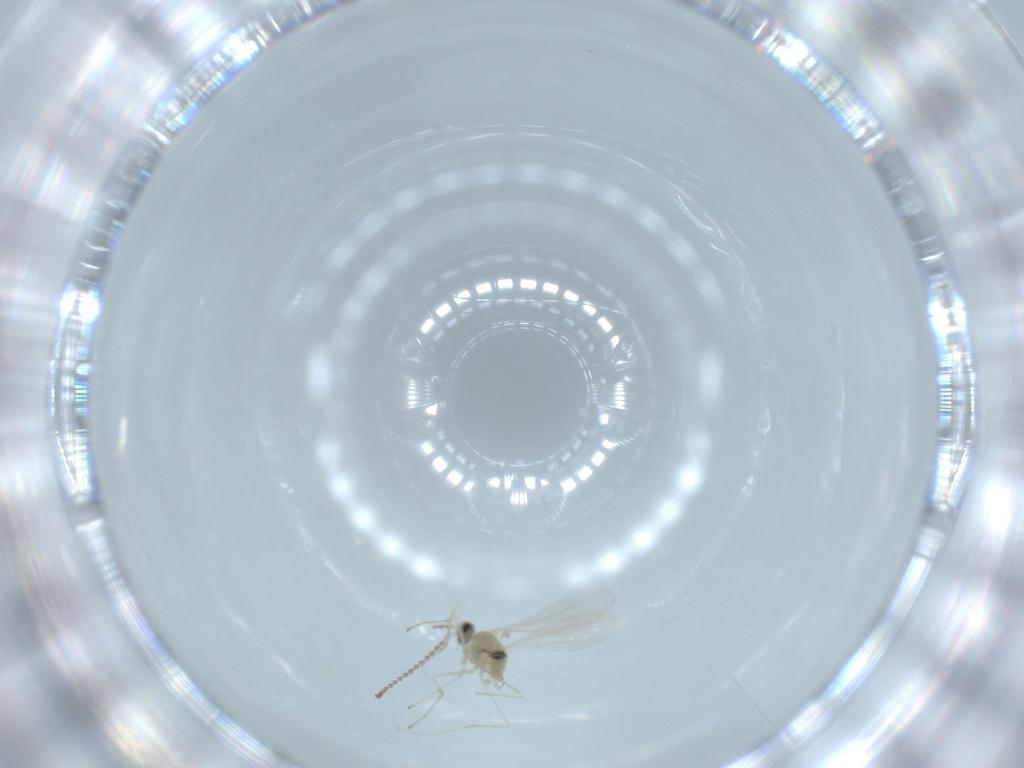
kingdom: Animalia
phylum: Arthropoda
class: Insecta
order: Diptera
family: Cecidomyiidae
